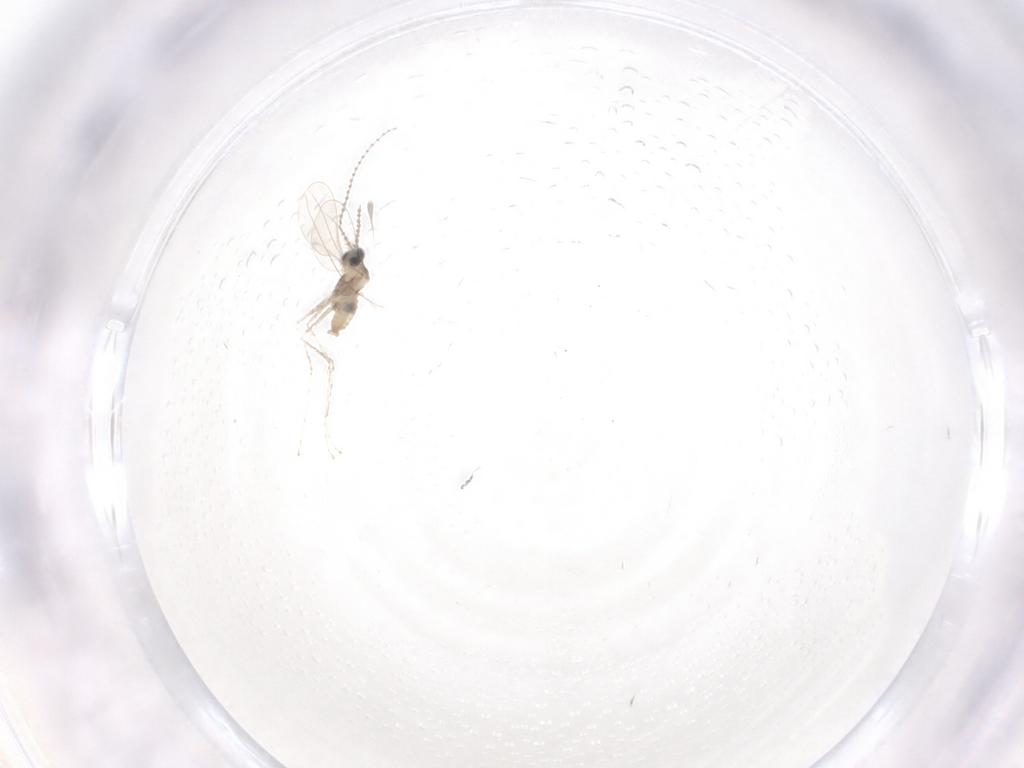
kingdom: Animalia
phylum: Arthropoda
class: Insecta
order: Diptera
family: Cecidomyiidae
